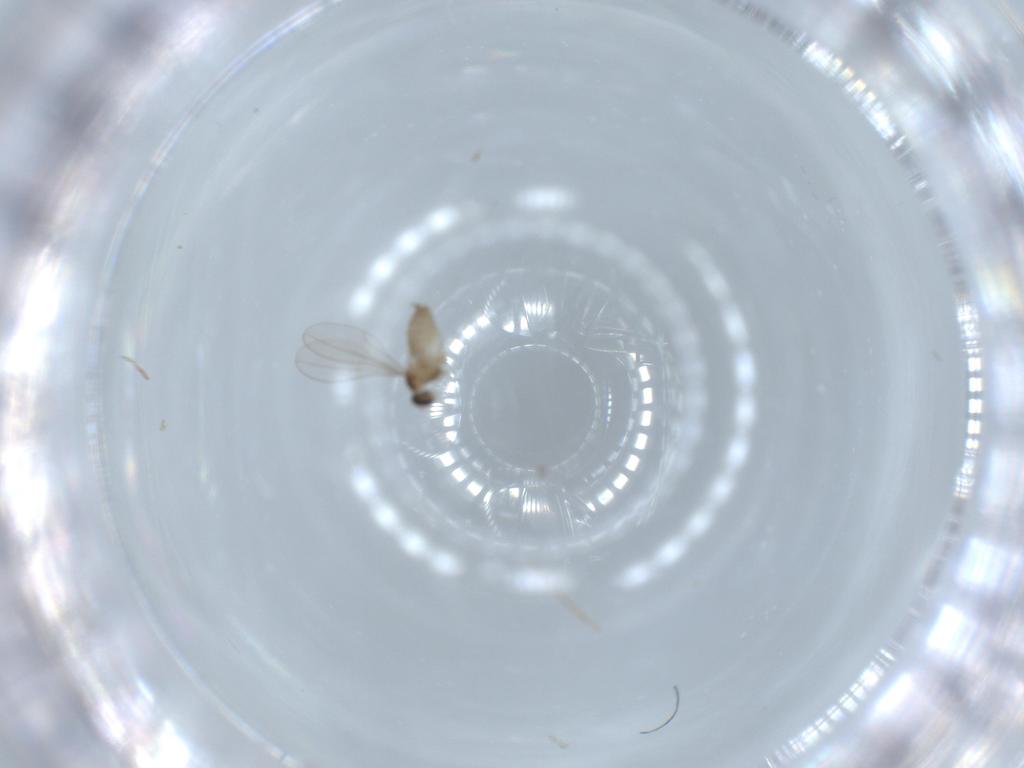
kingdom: Animalia
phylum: Arthropoda
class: Insecta
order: Diptera
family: Cecidomyiidae
